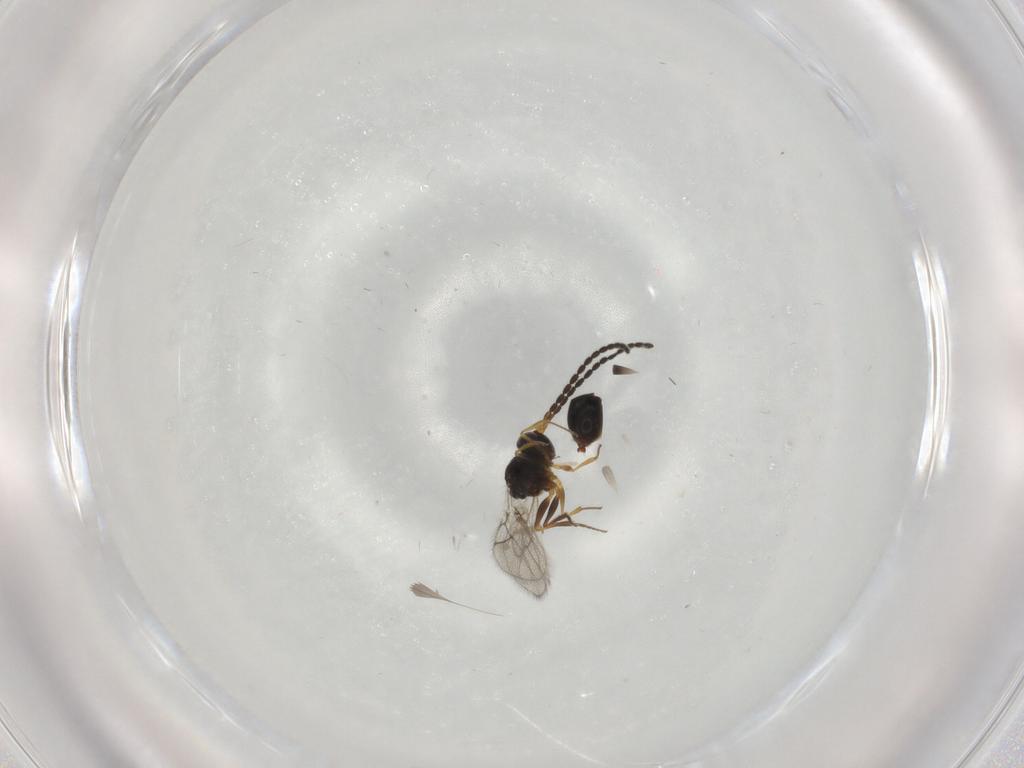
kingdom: Animalia
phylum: Arthropoda
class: Insecta
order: Hymenoptera
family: Figitidae
